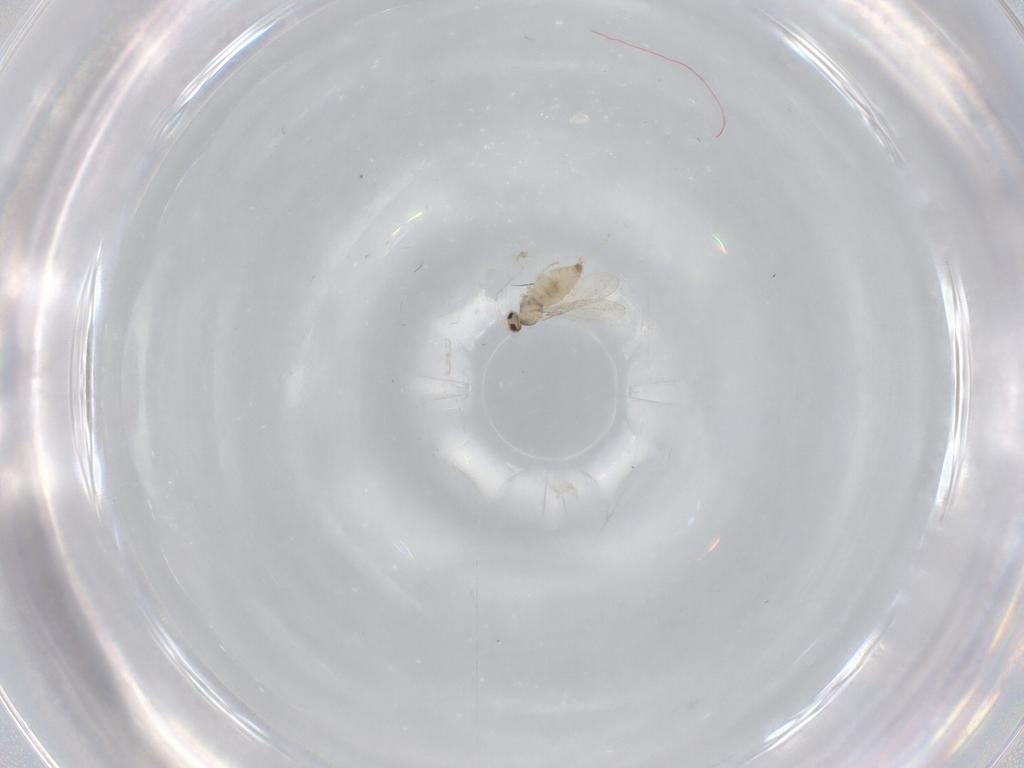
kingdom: Animalia
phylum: Arthropoda
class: Insecta
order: Diptera
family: Cecidomyiidae
